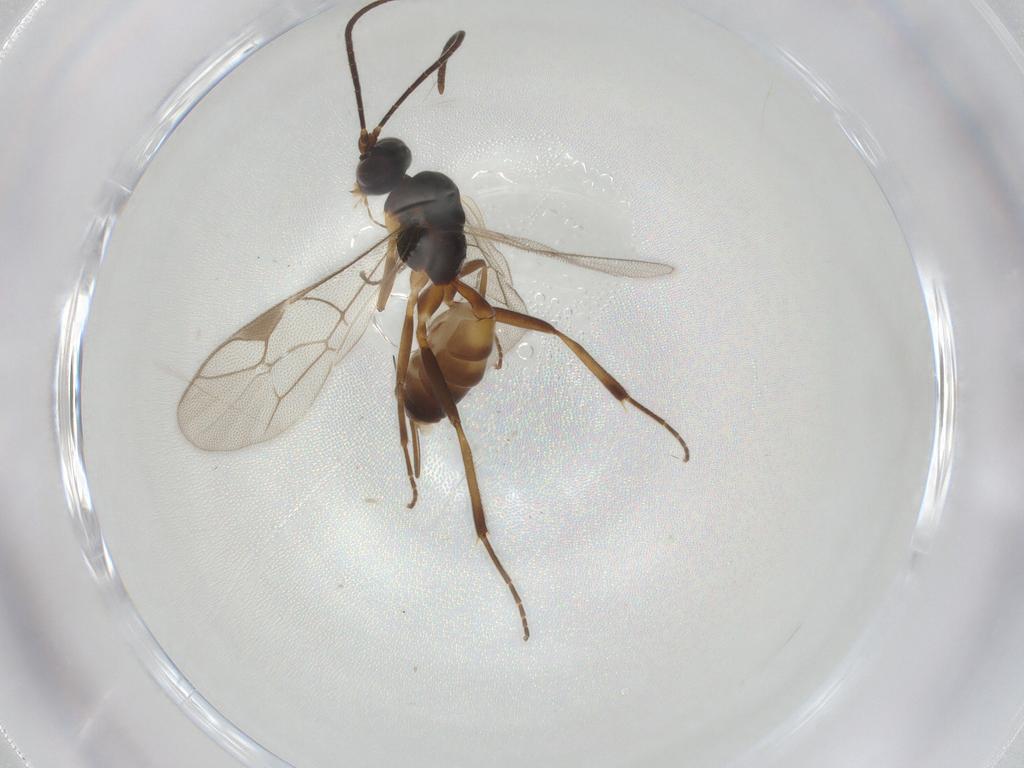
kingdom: Animalia
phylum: Arthropoda
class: Insecta
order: Hymenoptera
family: Ichneumonidae
